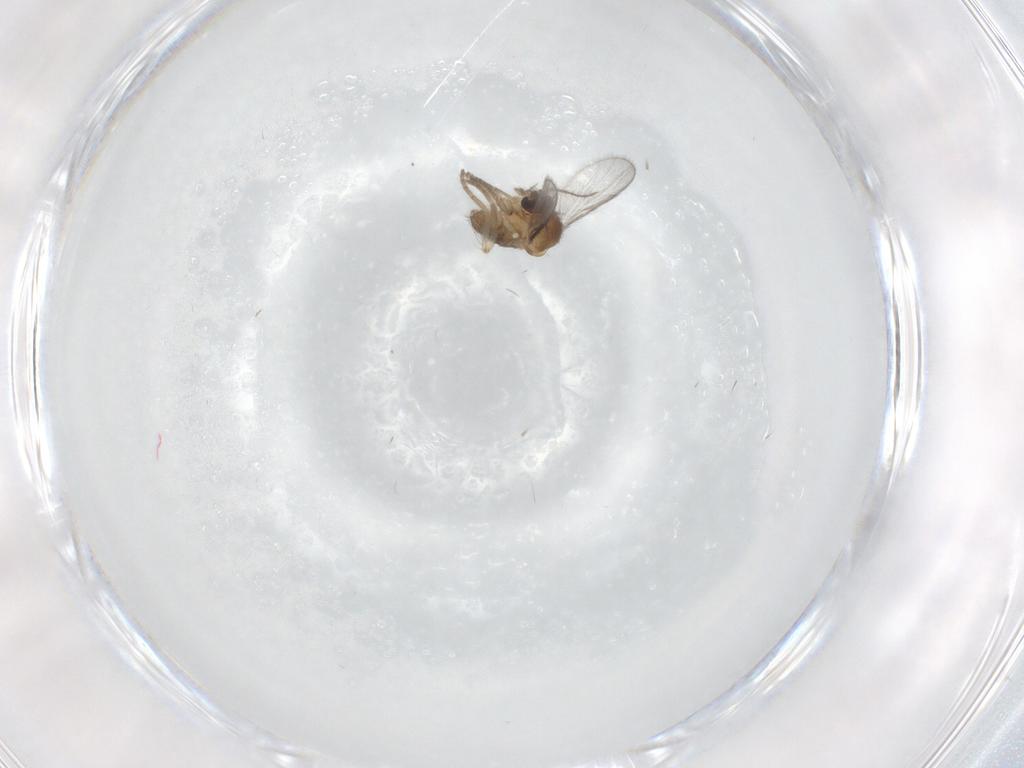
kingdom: Animalia
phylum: Arthropoda
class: Insecta
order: Diptera
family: Ceratopogonidae
